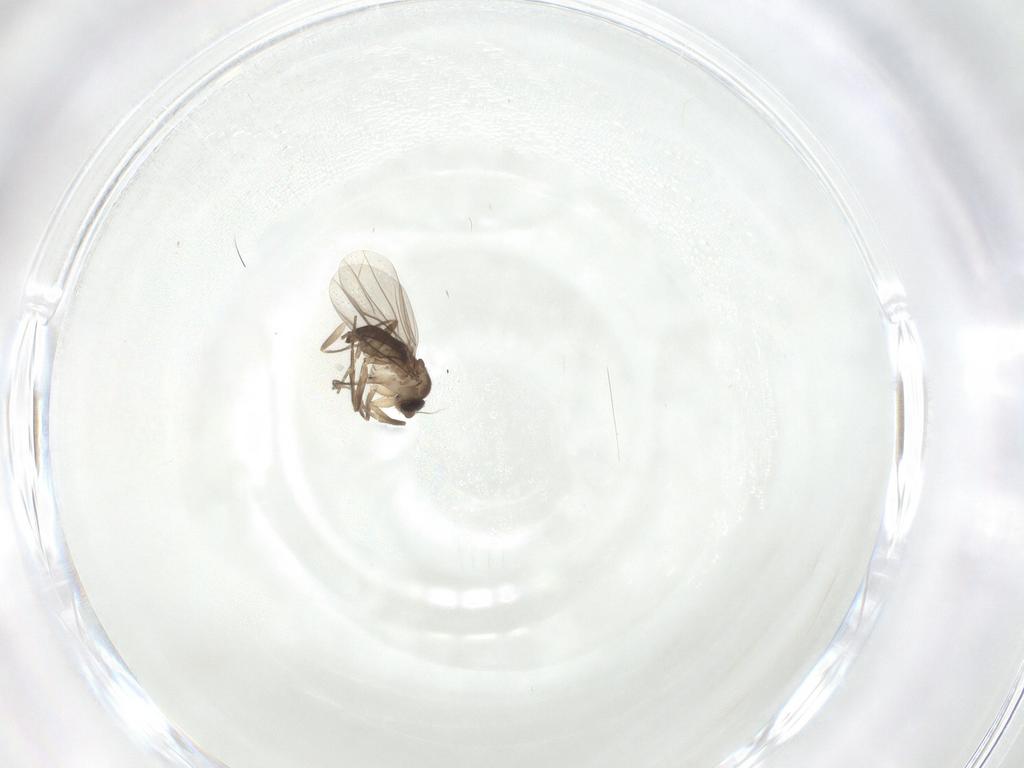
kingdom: Animalia
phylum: Arthropoda
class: Insecta
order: Diptera
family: Phoridae
